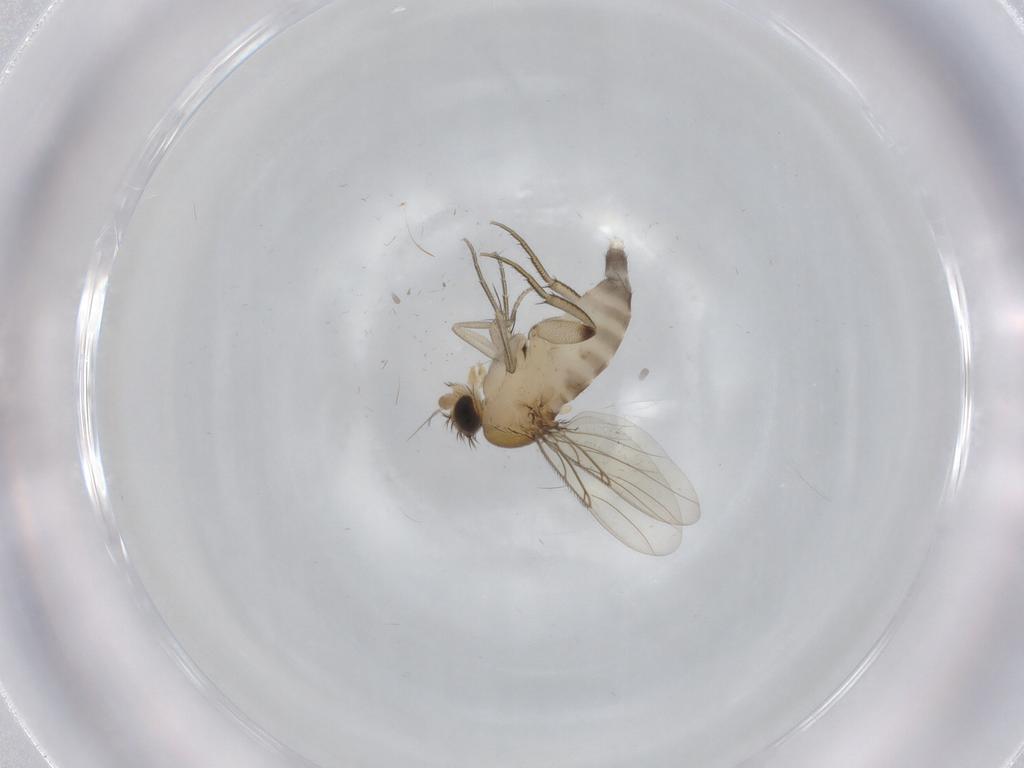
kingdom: Animalia
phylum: Arthropoda
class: Insecta
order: Diptera
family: Phoridae
